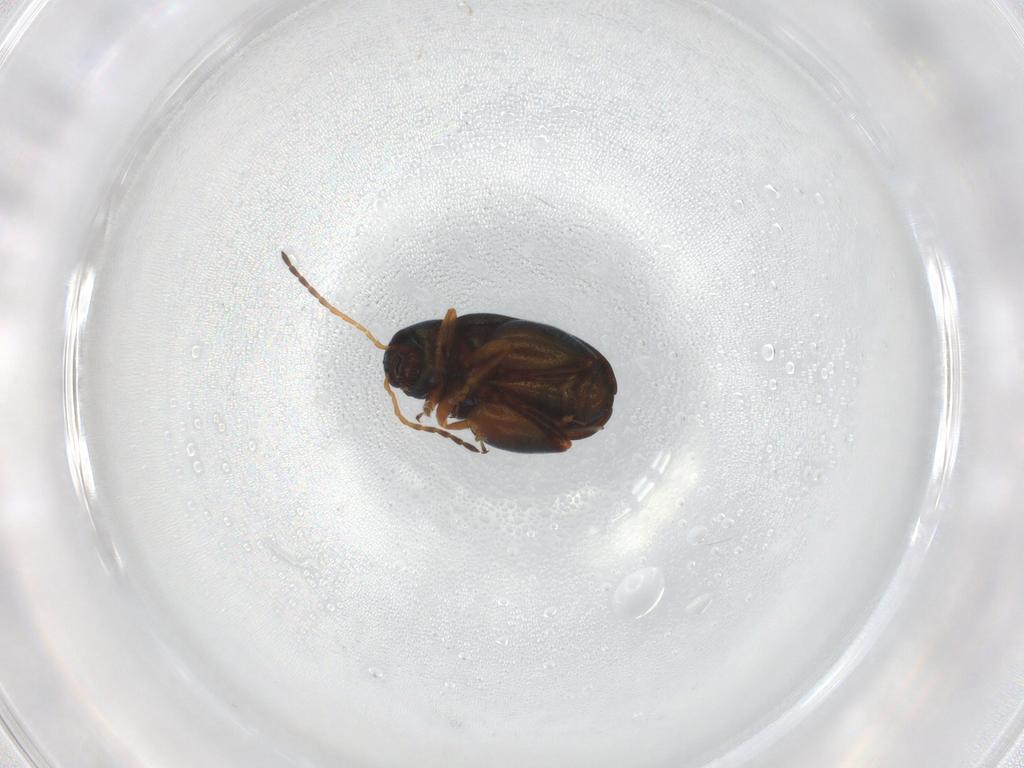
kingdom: Animalia
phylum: Arthropoda
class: Insecta
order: Coleoptera
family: Chrysomelidae
